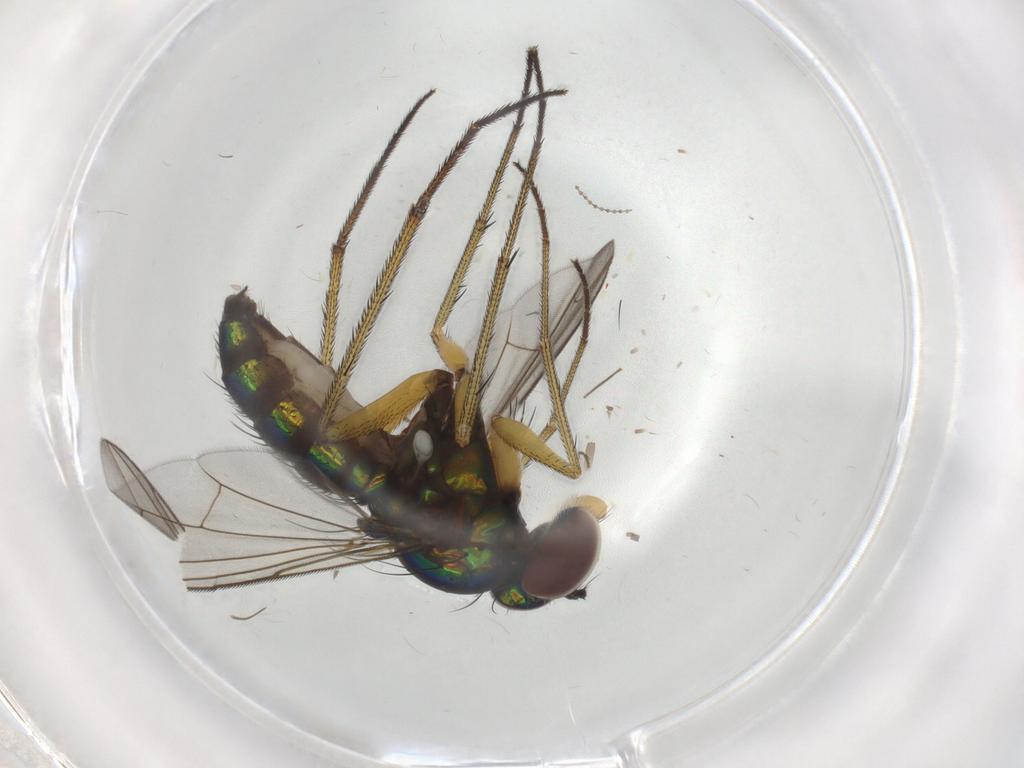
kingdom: Animalia
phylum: Arthropoda
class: Insecta
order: Diptera
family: Dolichopodidae
